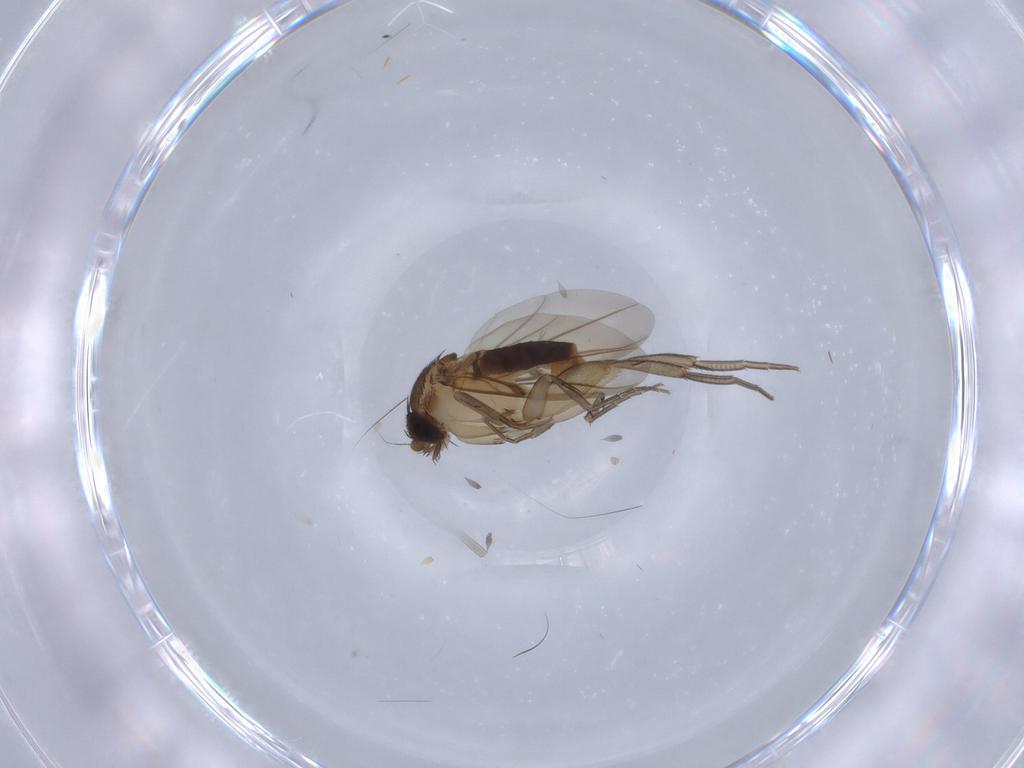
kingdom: Animalia
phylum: Arthropoda
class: Insecta
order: Diptera
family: Phoridae
